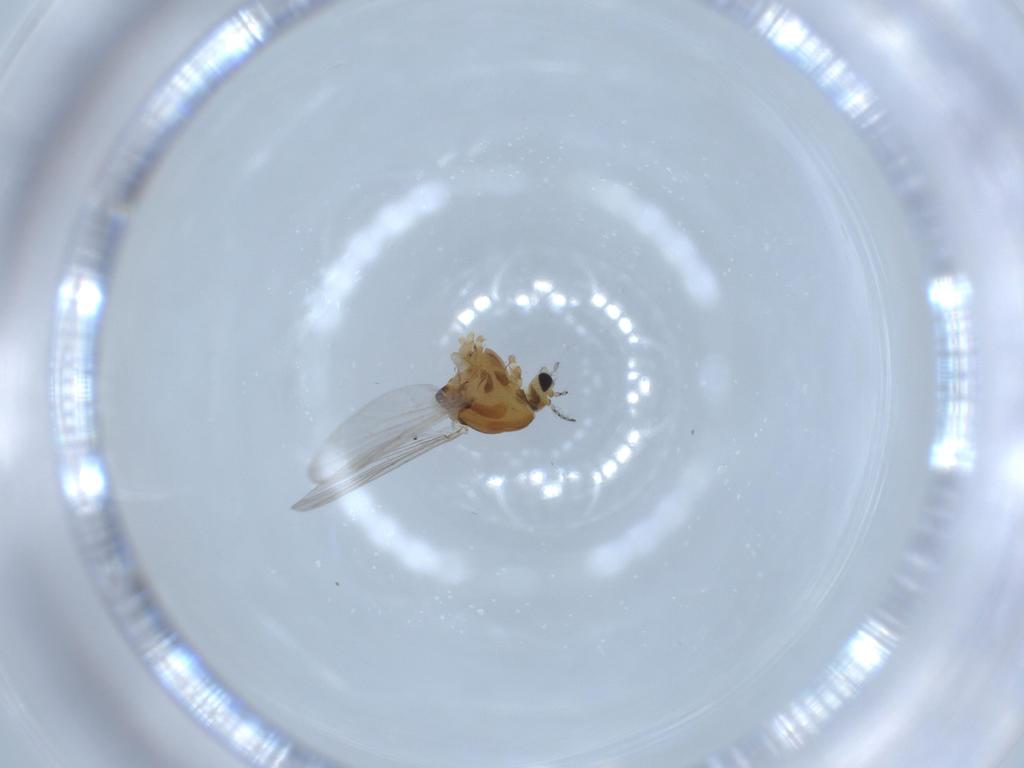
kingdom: Animalia
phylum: Arthropoda
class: Insecta
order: Diptera
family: Chironomidae
